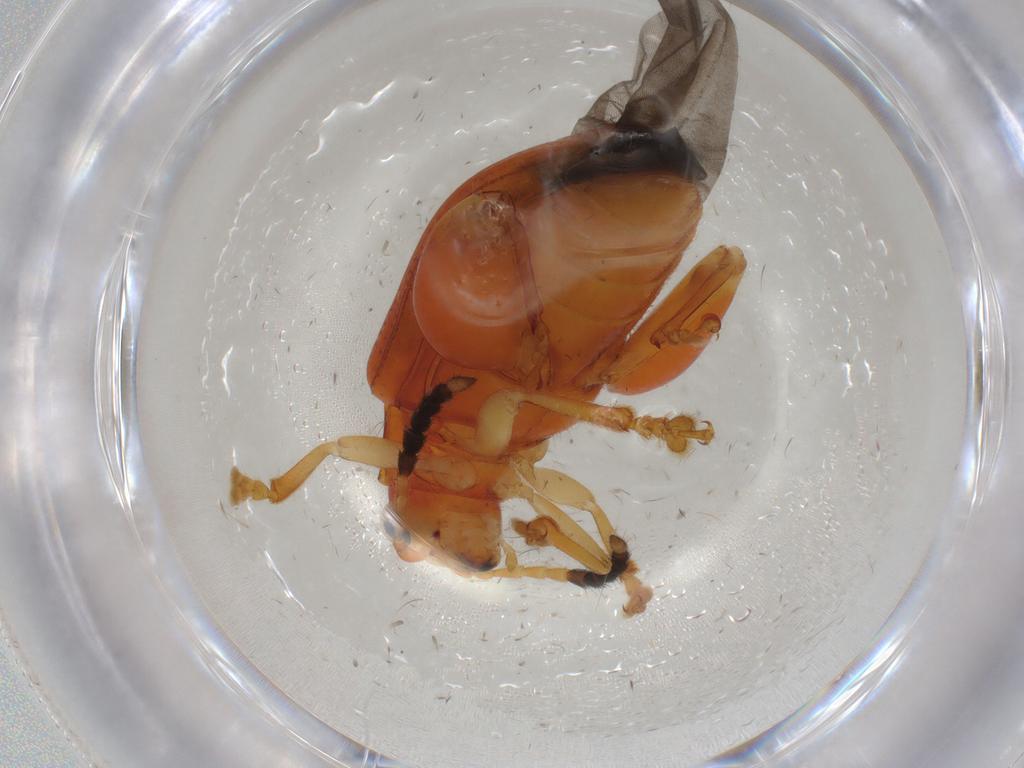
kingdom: Animalia
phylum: Arthropoda
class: Insecta
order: Coleoptera
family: Chrysomelidae
